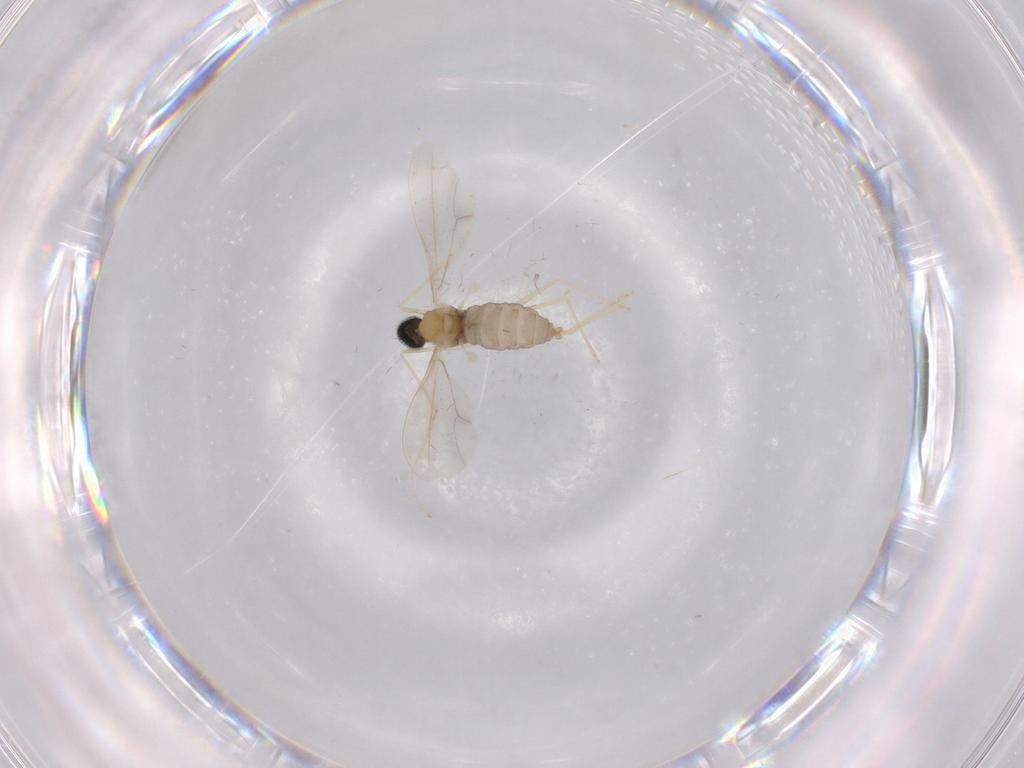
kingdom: Animalia
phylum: Arthropoda
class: Insecta
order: Diptera
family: Cecidomyiidae
